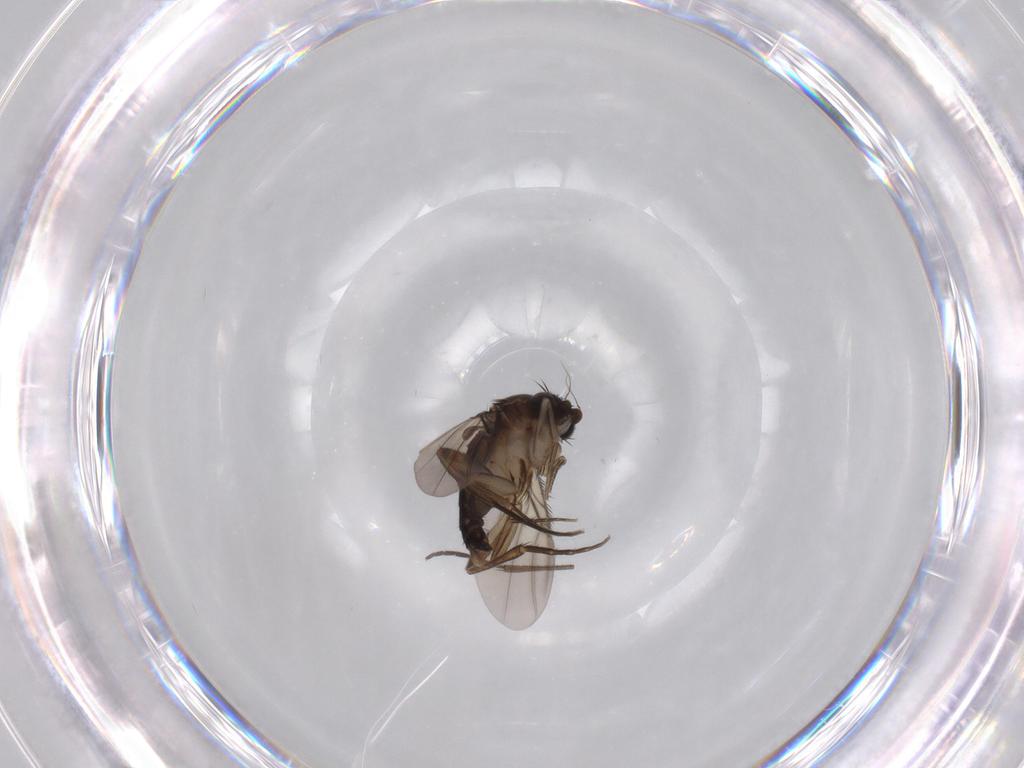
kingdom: Animalia
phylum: Arthropoda
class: Insecta
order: Diptera
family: Phoridae
